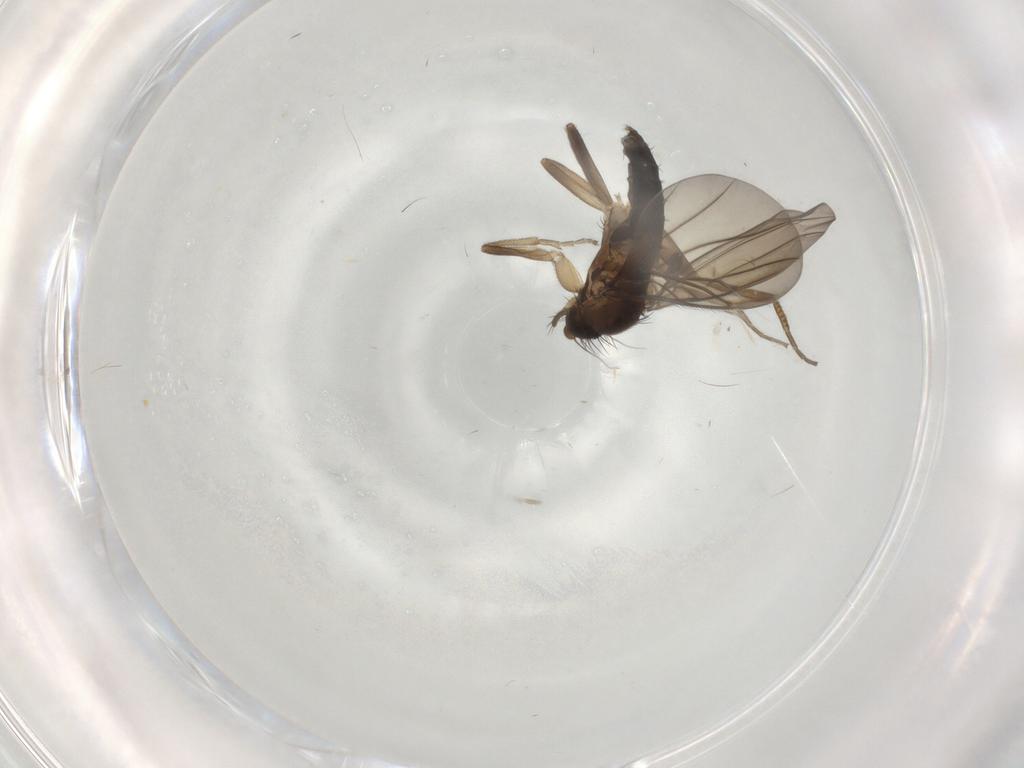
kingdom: Animalia
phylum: Arthropoda
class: Insecta
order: Diptera
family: Phoridae
